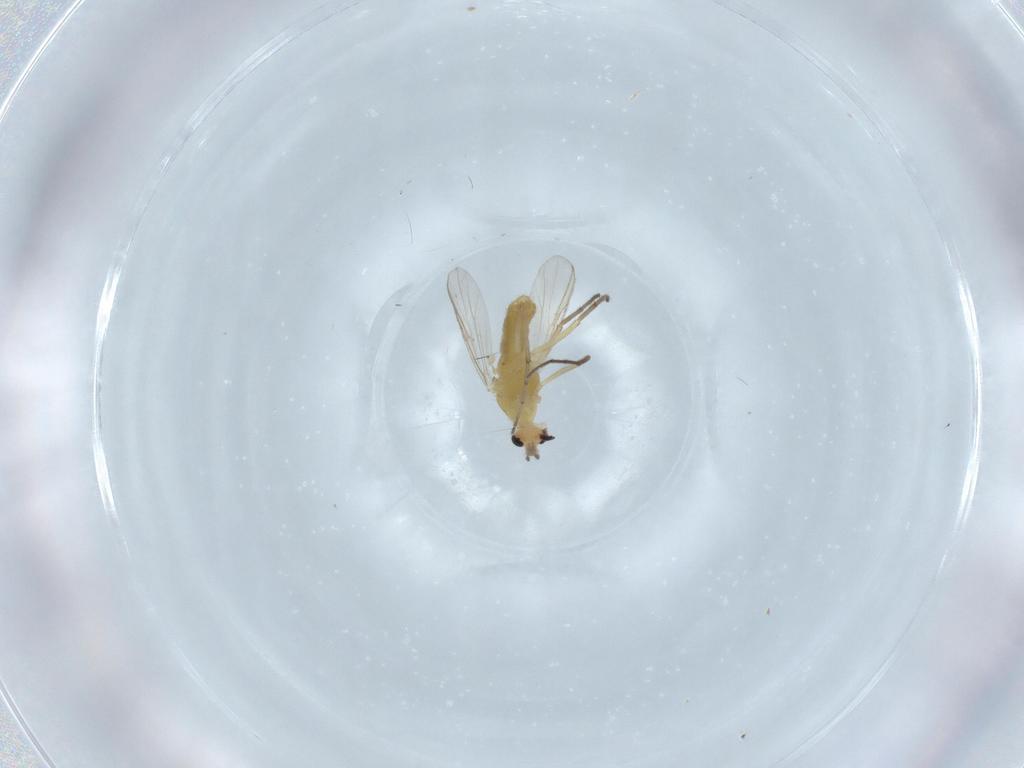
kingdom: Animalia
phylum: Arthropoda
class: Insecta
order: Diptera
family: Chironomidae
